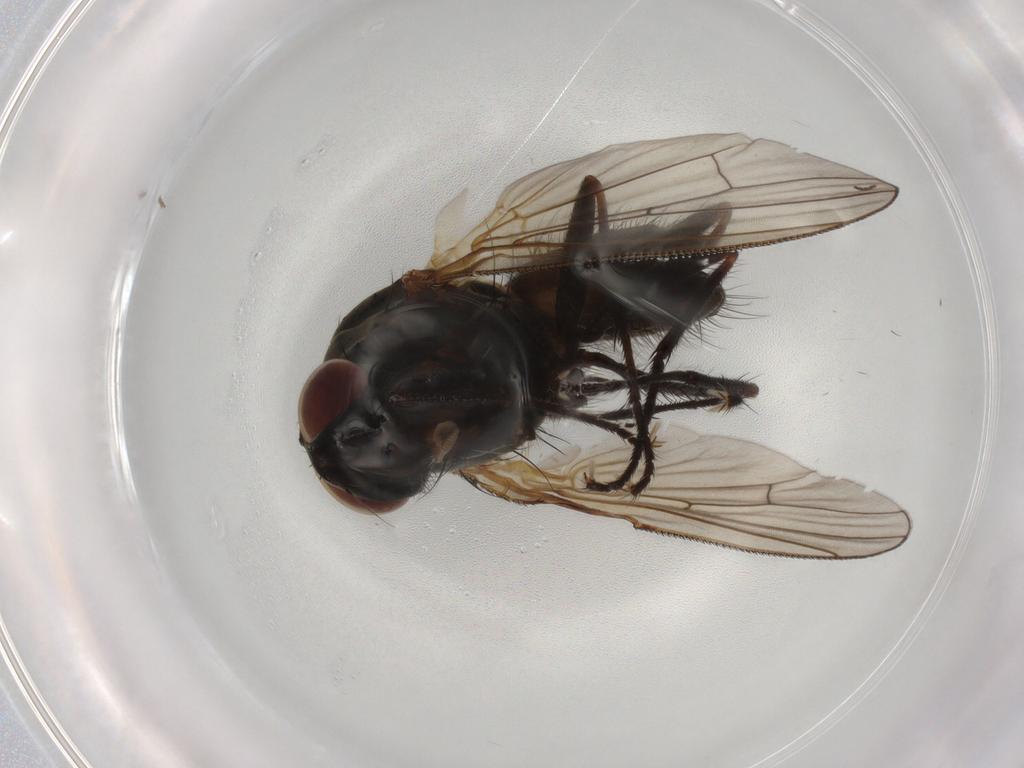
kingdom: Animalia
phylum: Arthropoda
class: Insecta
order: Diptera
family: Anthomyiidae
